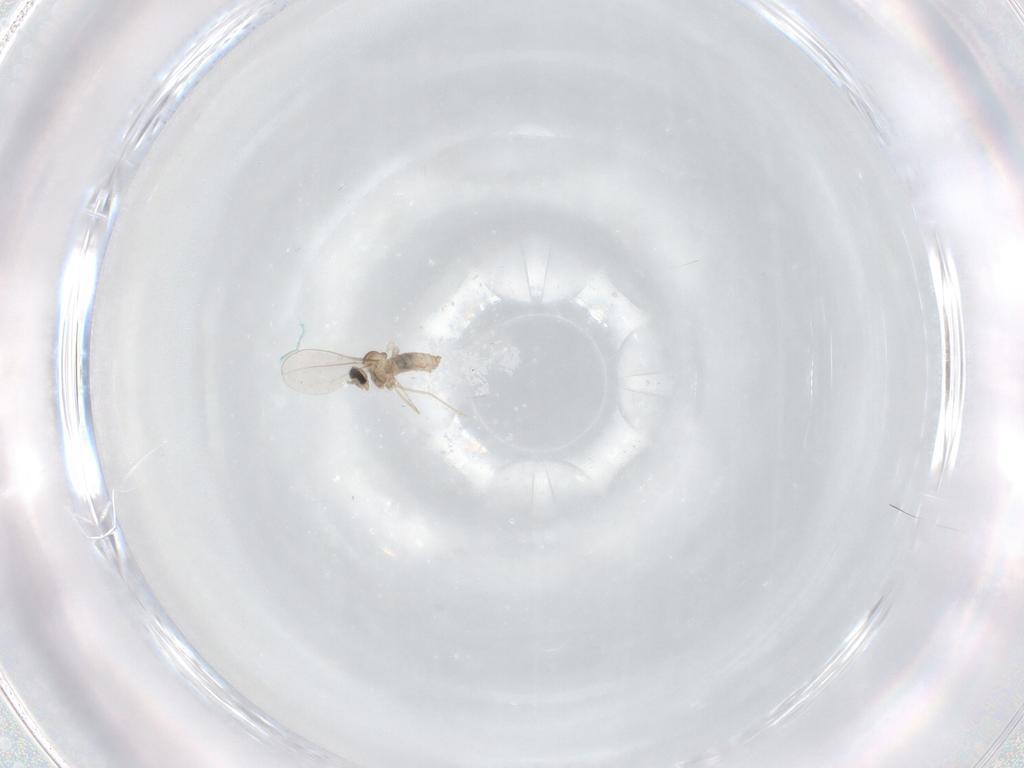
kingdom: Animalia
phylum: Arthropoda
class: Insecta
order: Diptera
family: Cecidomyiidae
